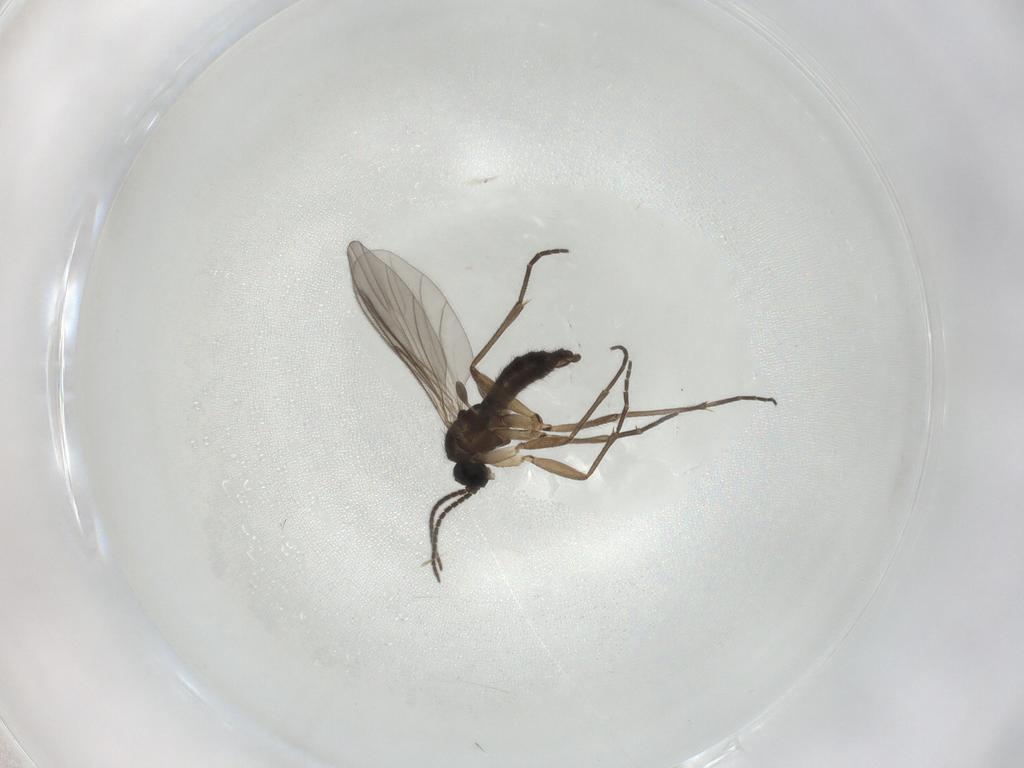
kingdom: Animalia
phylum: Arthropoda
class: Insecta
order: Diptera
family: Sciaridae
